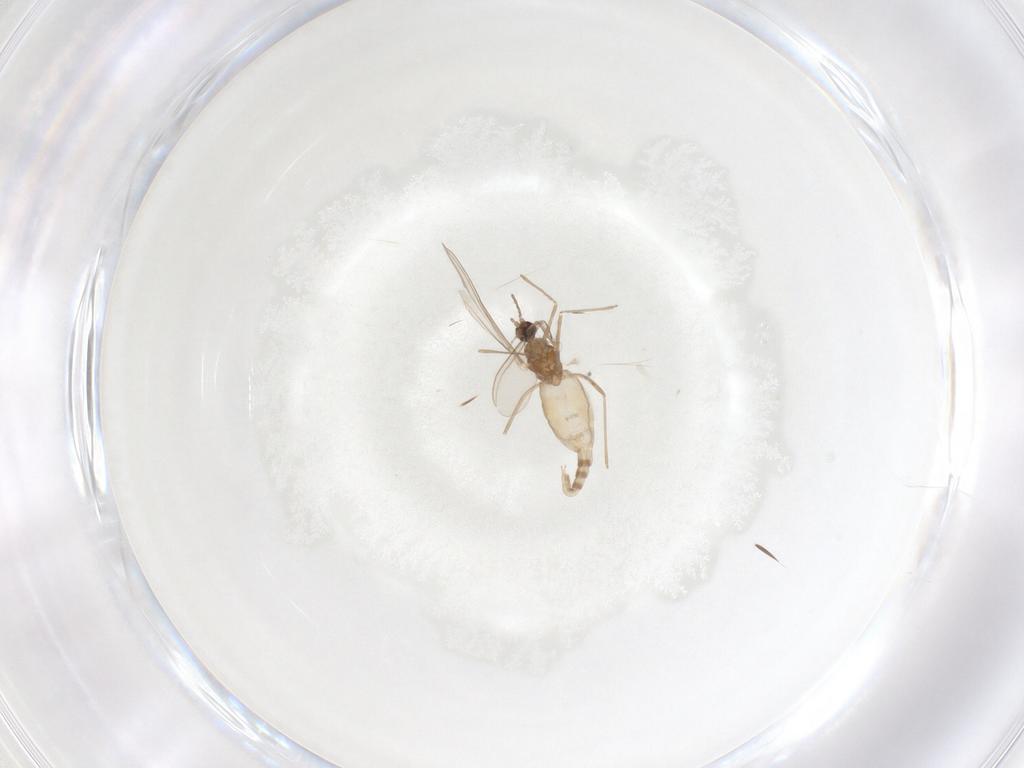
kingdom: Animalia
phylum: Arthropoda
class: Insecta
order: Diptera
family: Cecidomyiidae
